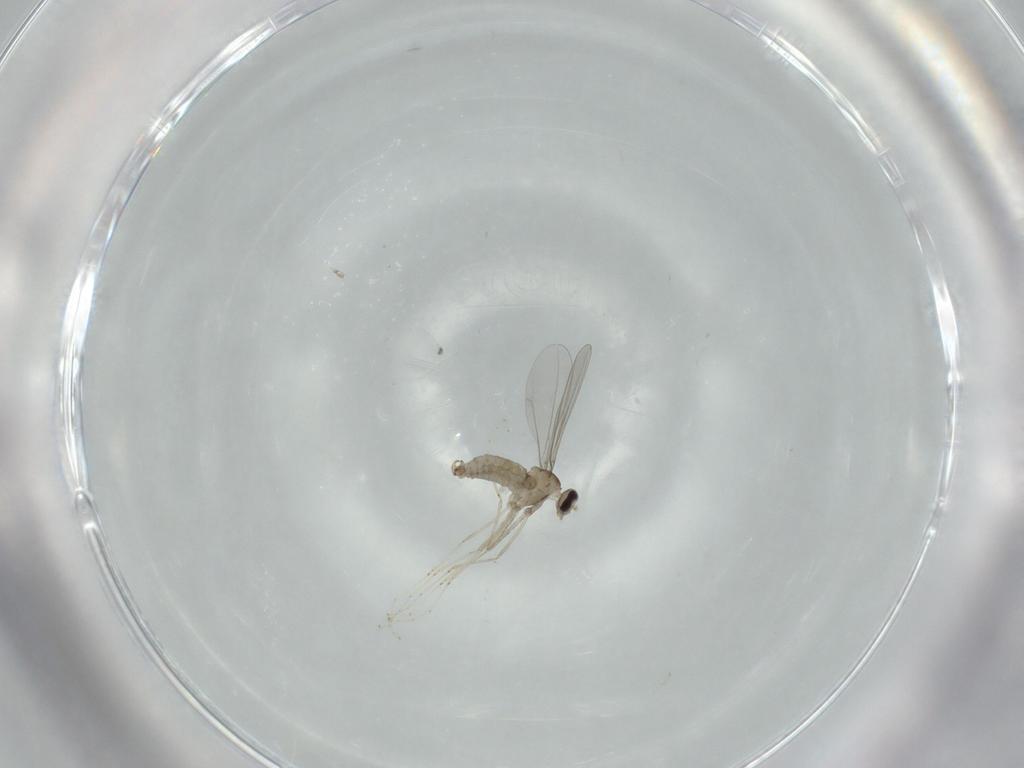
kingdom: Animalia
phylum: Arthropoda
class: Insecta
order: Diptera
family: Cecidomyiidae
